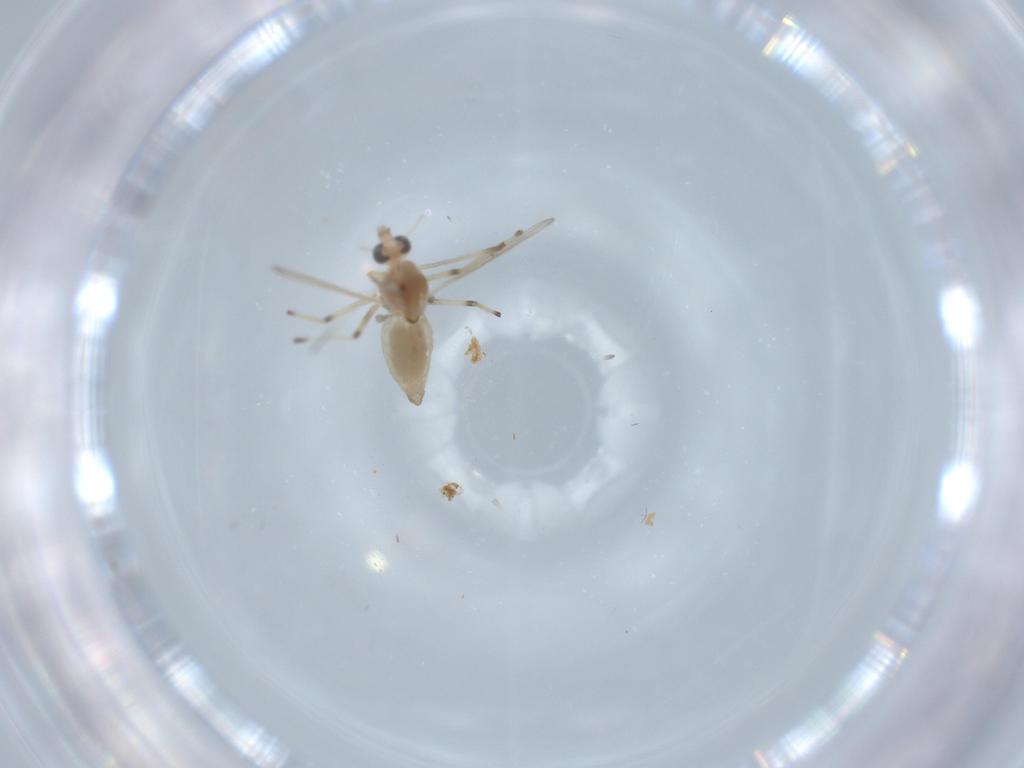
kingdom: Animalia
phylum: Arthropoda
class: Insecta
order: Diptera
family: Chironomidae
